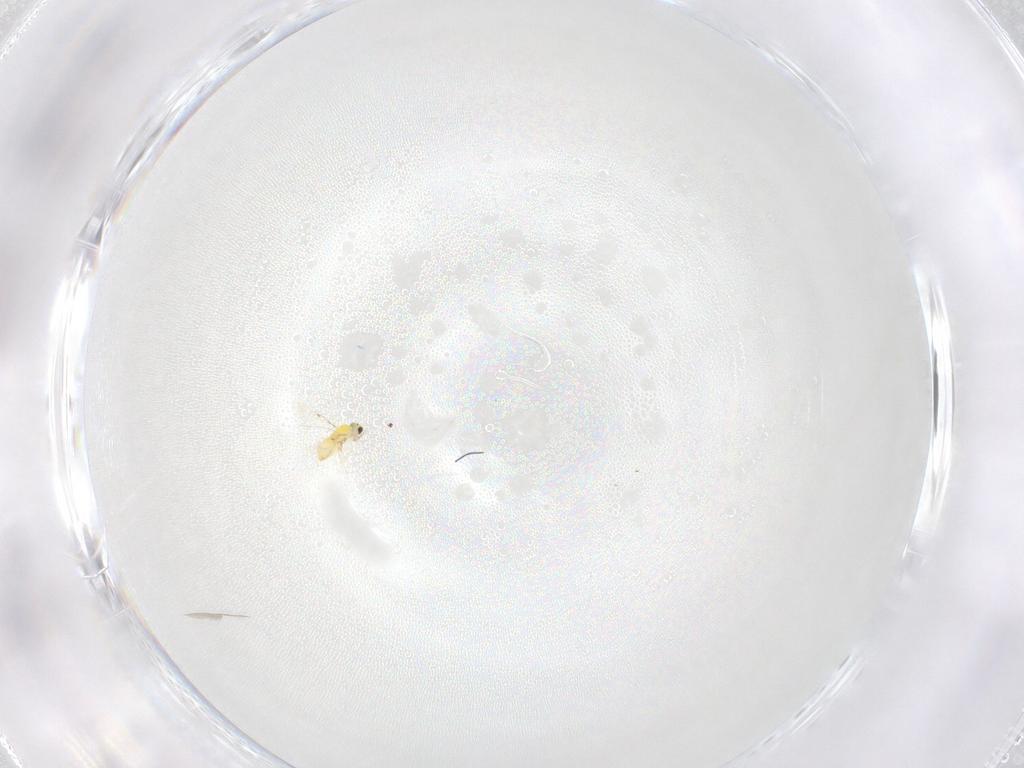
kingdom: Animalia
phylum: Arthropoda
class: Insecta
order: Hymenoptera
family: Trichogrammatidae
